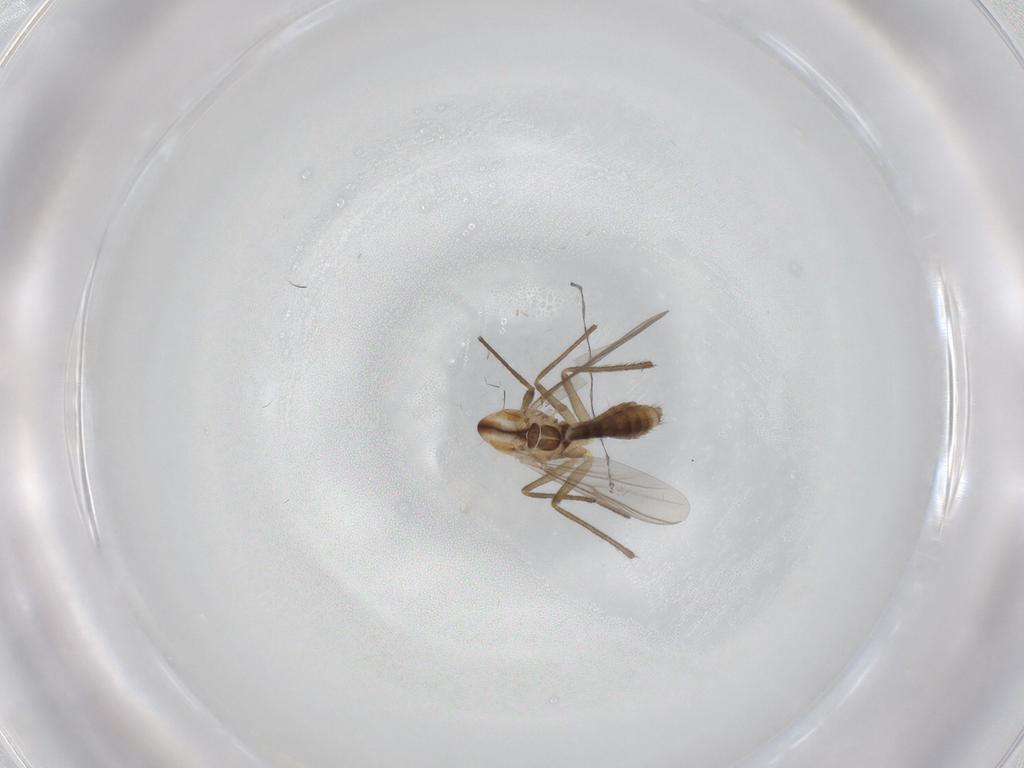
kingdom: Animalia
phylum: Arthropoda
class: Insecta
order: Diptera
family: Chironomidae
